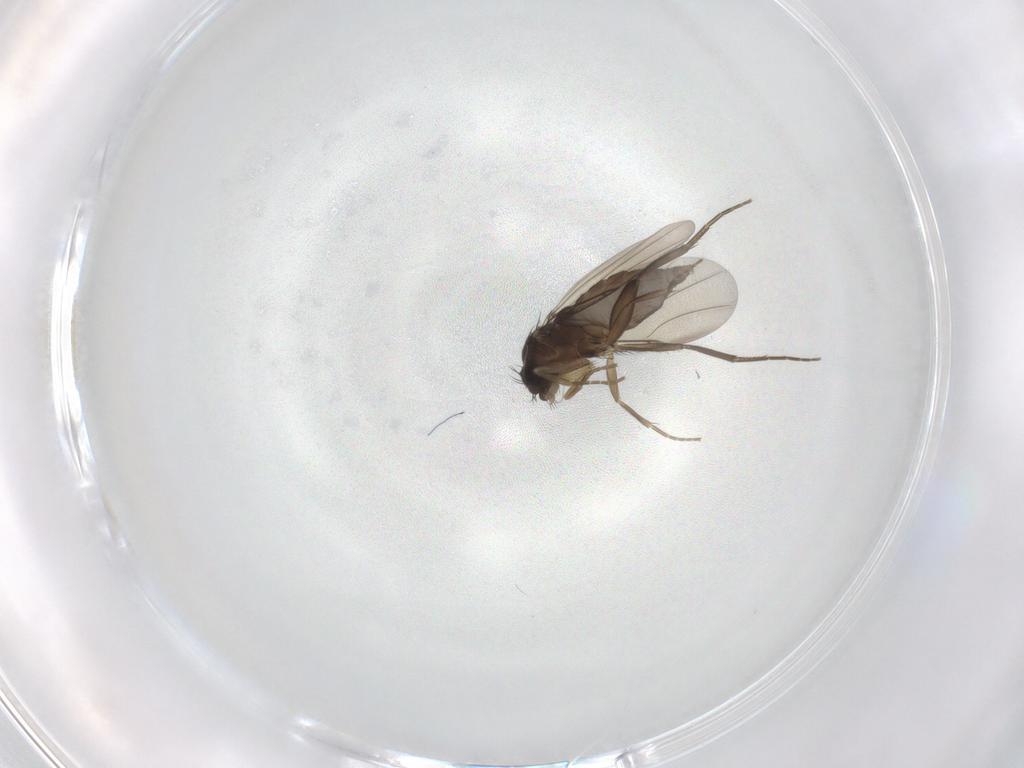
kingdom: Animalia
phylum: Arthropoda
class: Insecta
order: Diptera
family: Phoridae
